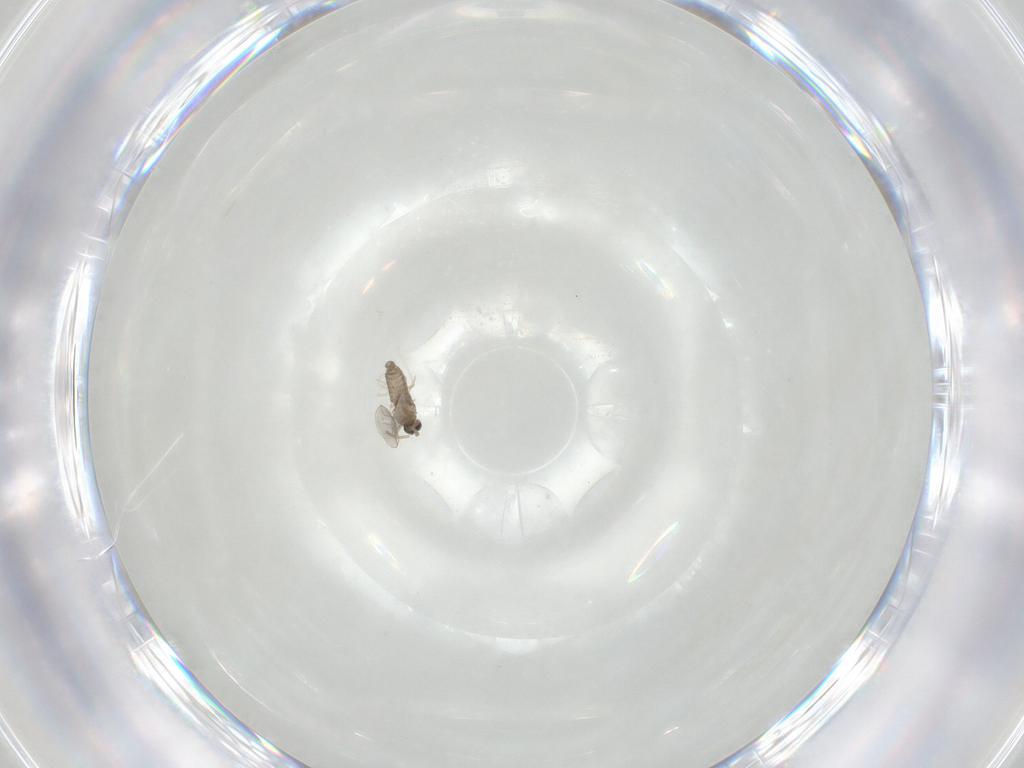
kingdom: Animalia
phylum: Arthropoda
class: Insecta
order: Diptera
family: Cecidomyiidae
